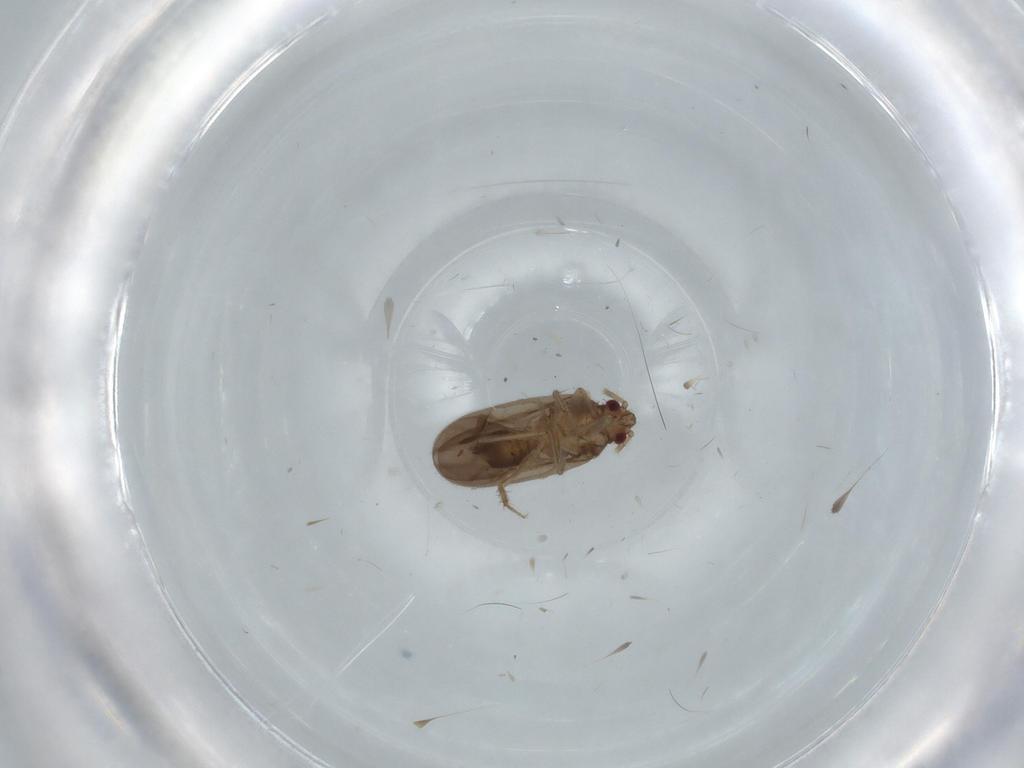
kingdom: Animalia
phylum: Arthropoda
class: Insecta
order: Hemiptera
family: Ceratocombidae
